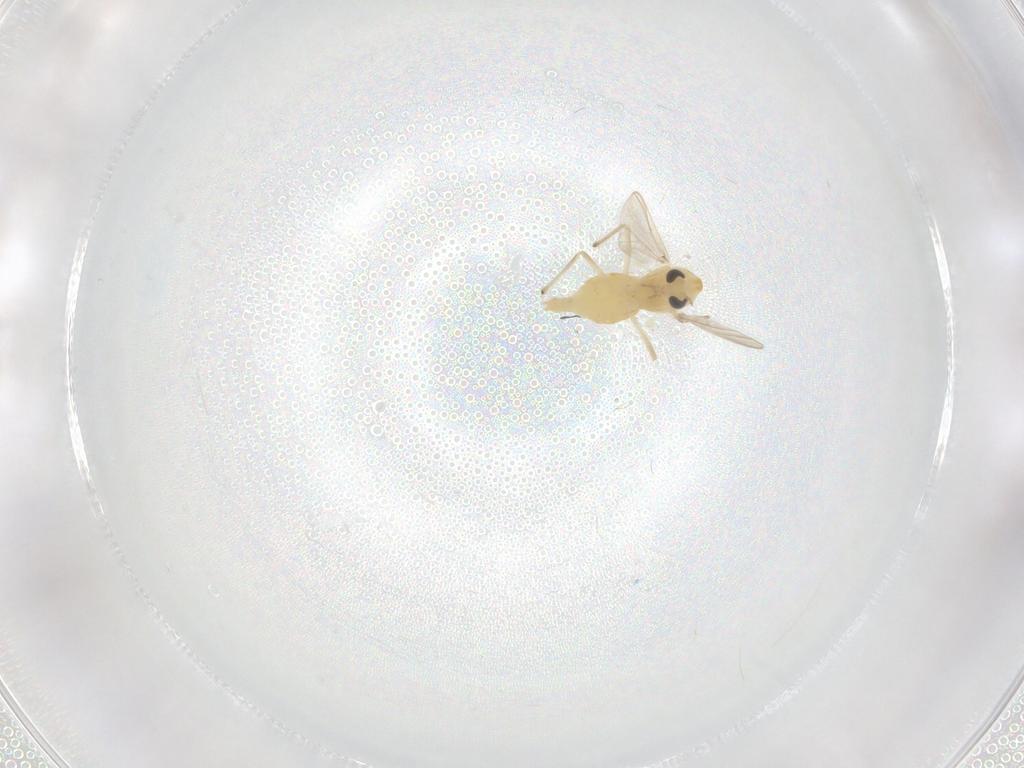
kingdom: Animalia
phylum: Arthropoda
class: Insecta
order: Diptera
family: Chironomidae
